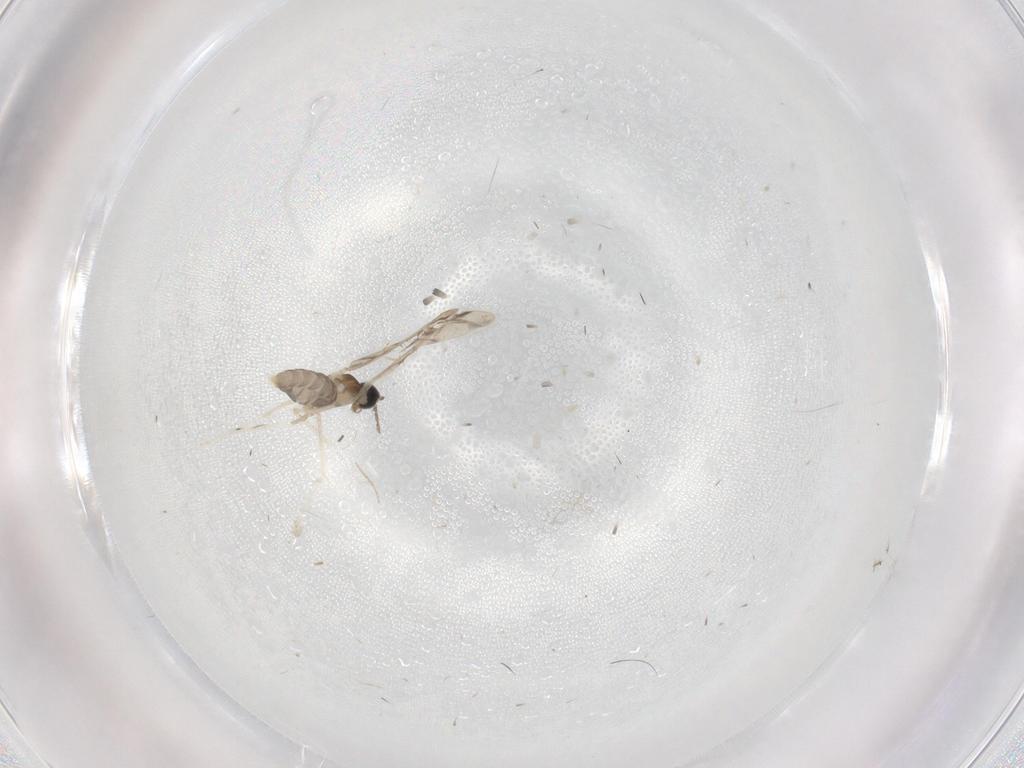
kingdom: Animalia
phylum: Arthropoda
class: Insecta
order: Diptera
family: Cecidomyiidae
